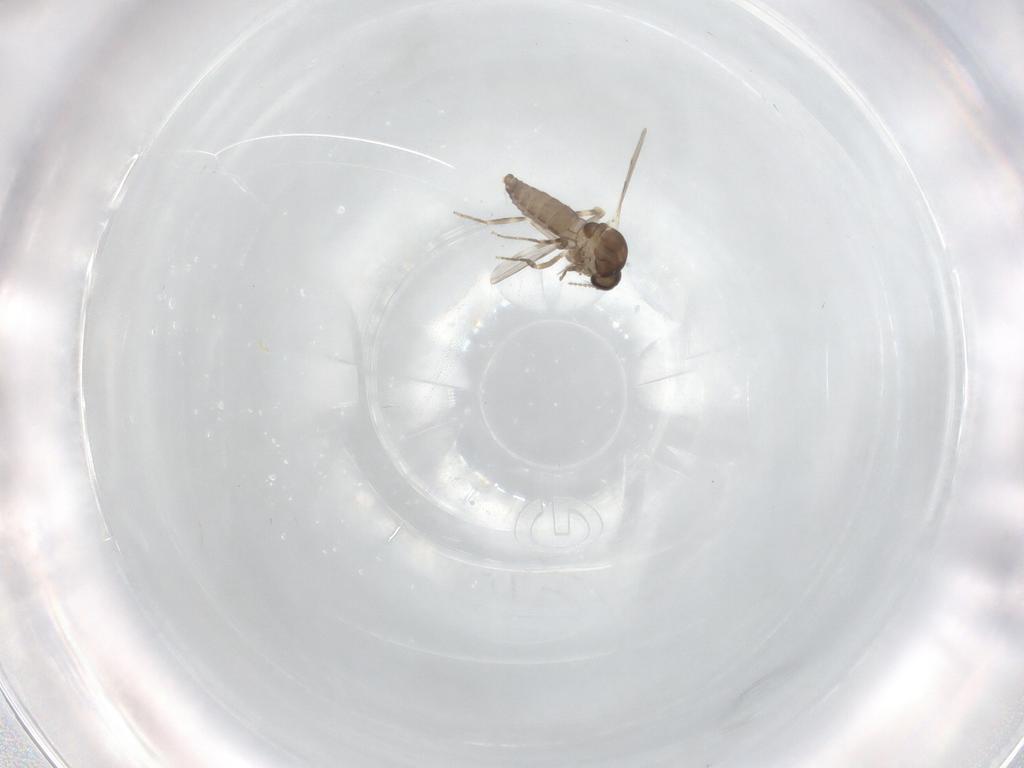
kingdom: Animalia
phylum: Arthropoda
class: Insecta
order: Diptera
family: Ceratopogonidae
